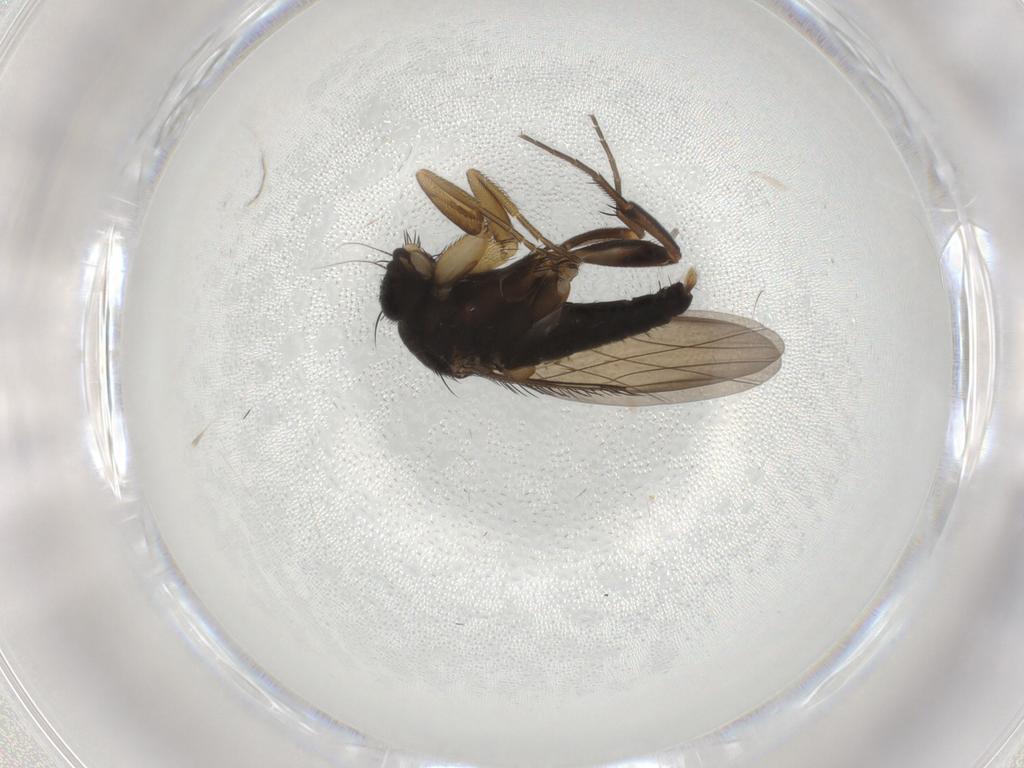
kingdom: Animalia
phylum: Arthropoda
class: Insecta
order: Diptera
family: Phoridae
